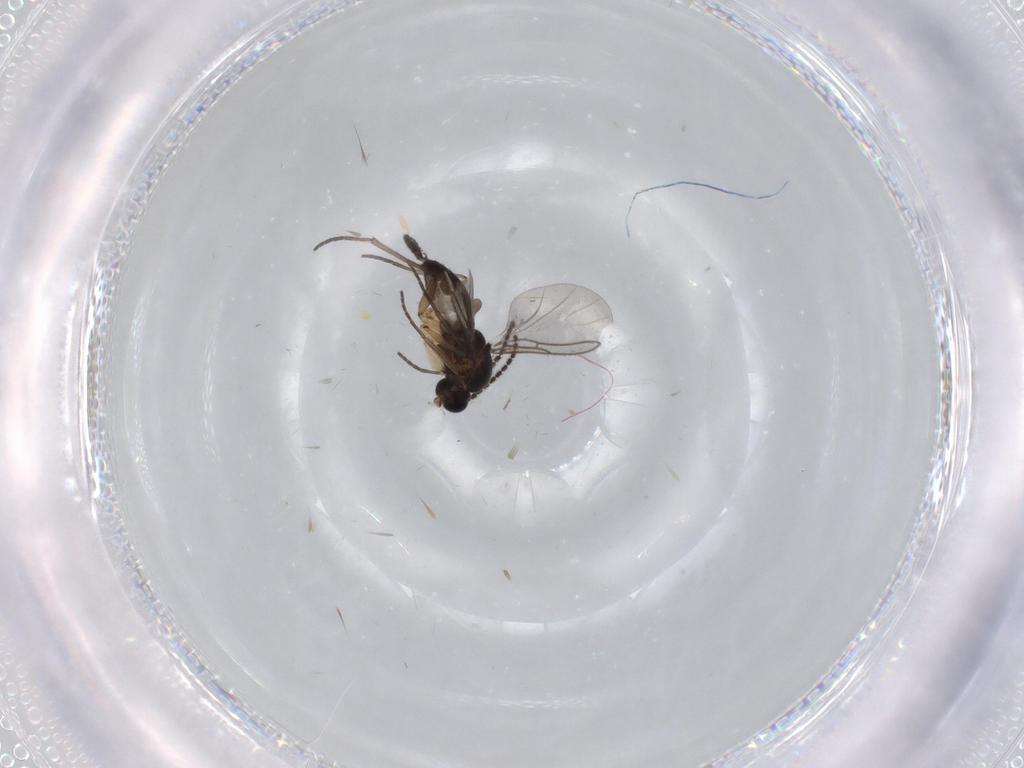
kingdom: Animalia
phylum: Arthropoda
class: Insecta
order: Diptera
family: Sciaridae
